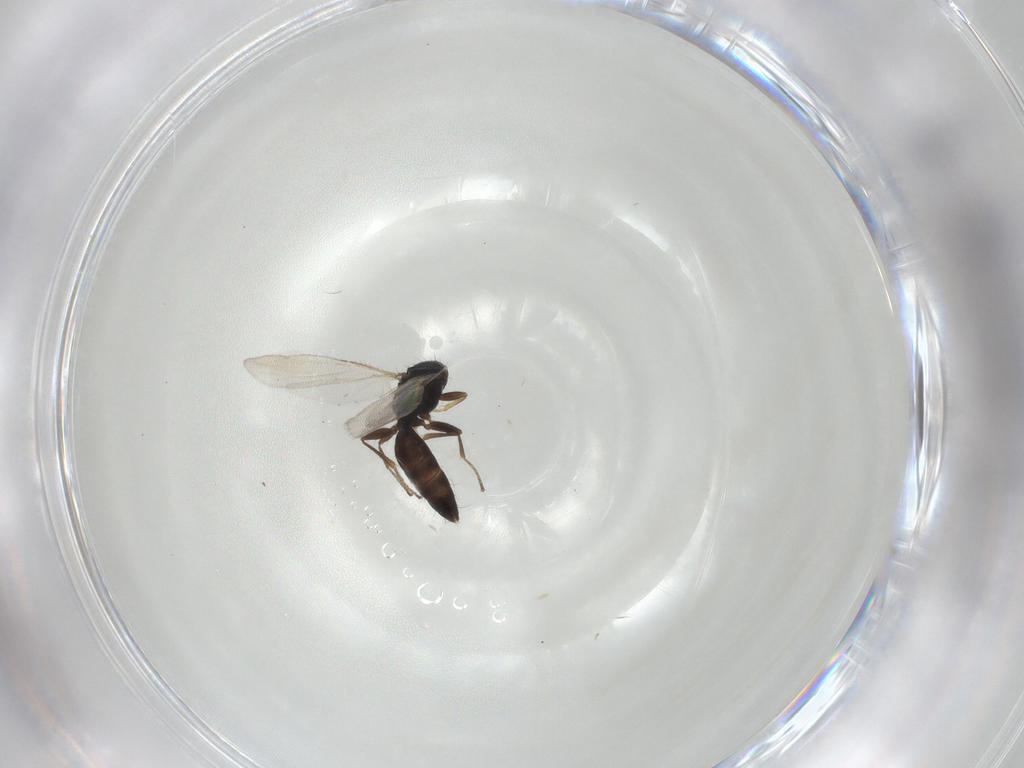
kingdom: Animalia
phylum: Arthropoda
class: Insecta
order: Hymenoptera
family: Bethylidae
